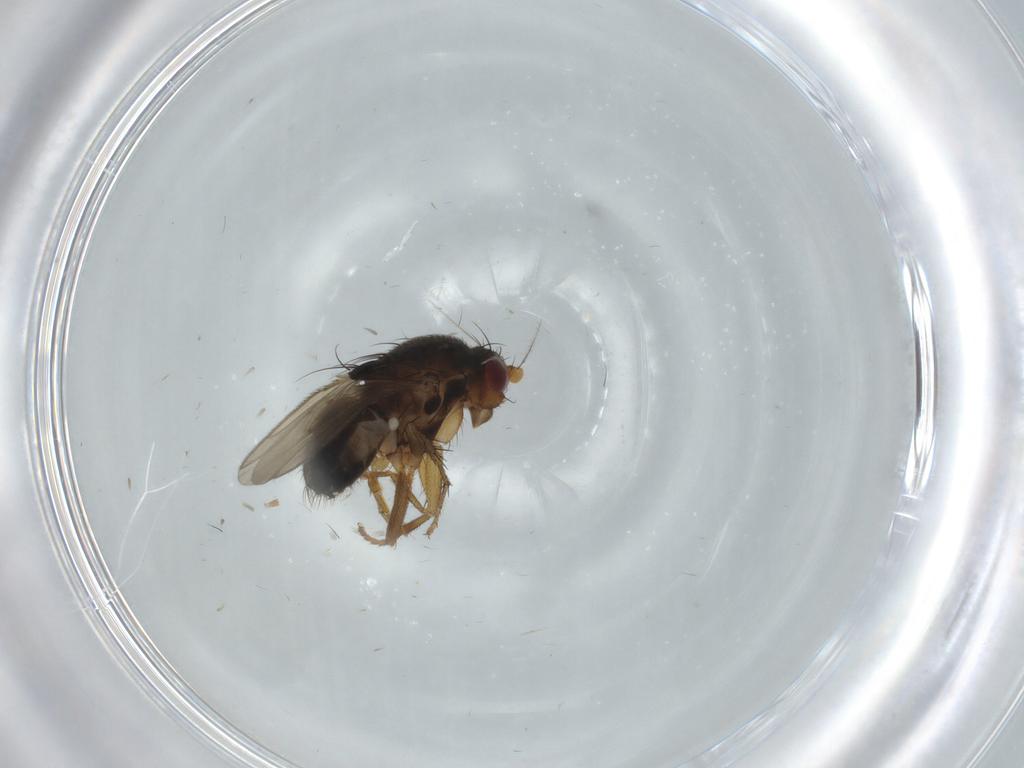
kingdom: Animalia
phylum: Arthropoda
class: Insecta
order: Diptera
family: Sphaeroceridae
